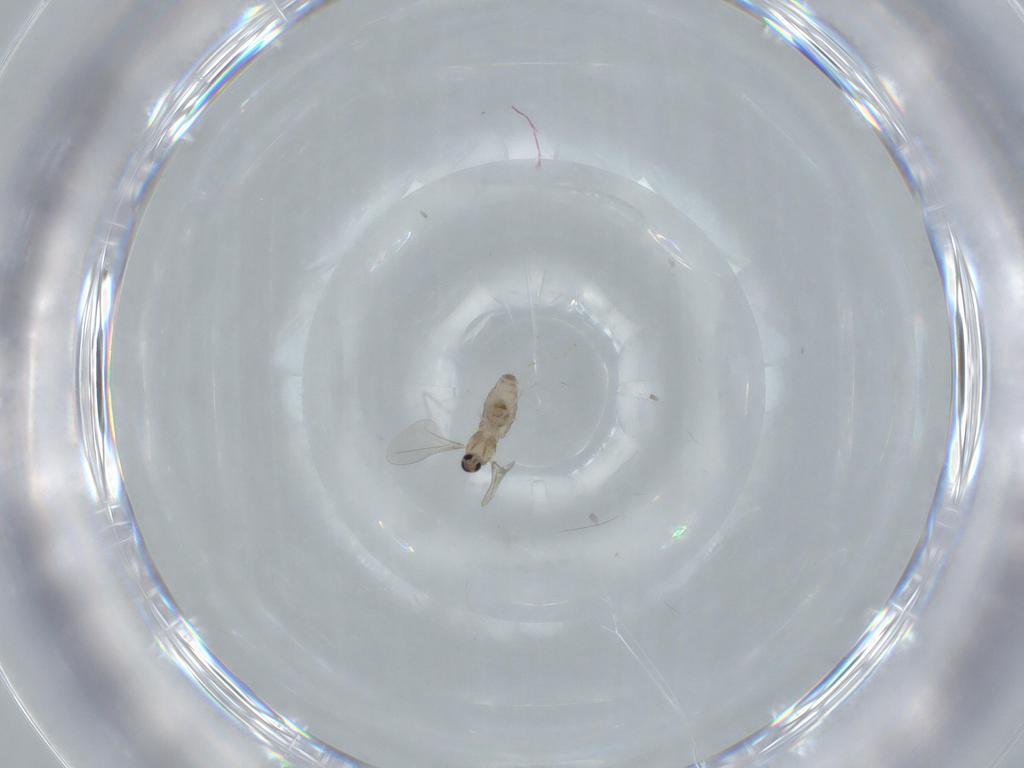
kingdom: Animalia
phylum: Arthropoda
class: Insecta
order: Diptera
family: Cecidomyiidae
